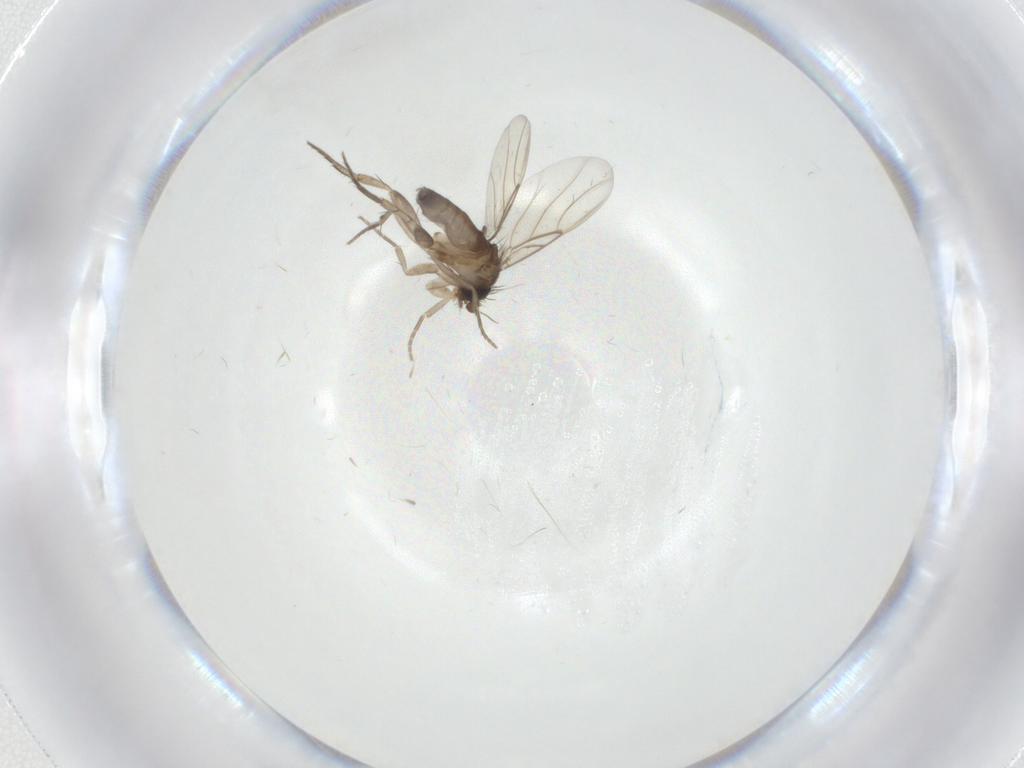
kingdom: Animalia
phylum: Arthropoda
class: Insecta
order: Diptera
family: Phoridae
